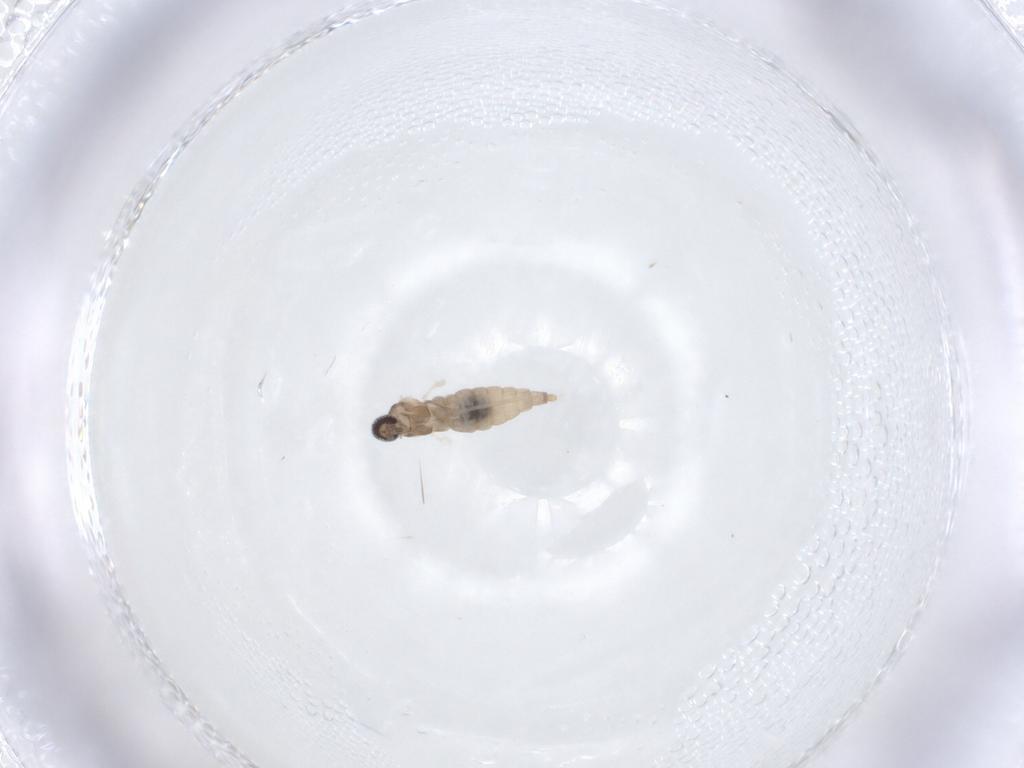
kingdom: Animalia
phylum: Arthropoda
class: Insecta
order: Diptera
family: Cecidomyiidae
